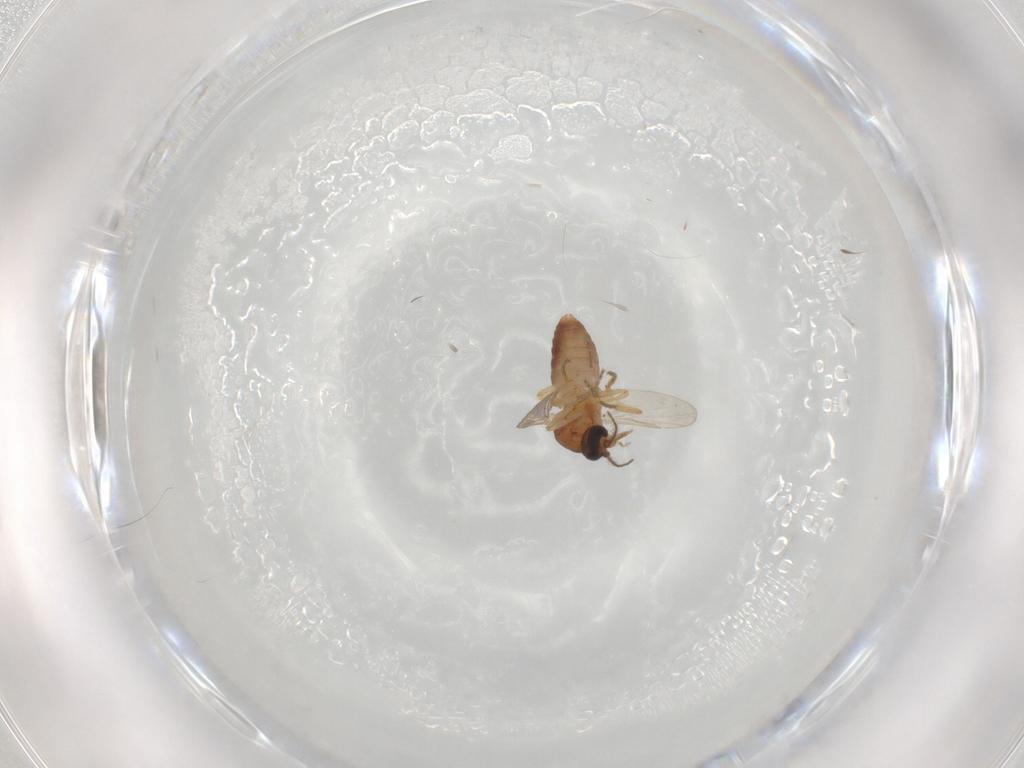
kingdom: Animalia
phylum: Arthropoda
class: Insecta
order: Diptera
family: Ceratopogonidae
